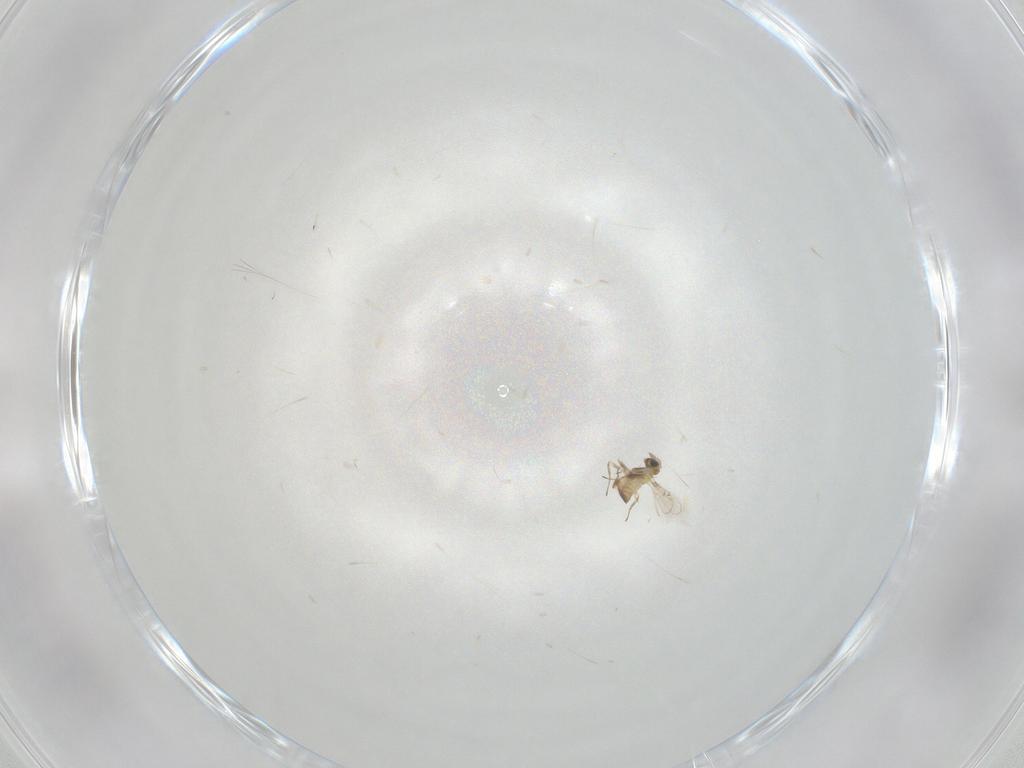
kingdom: Animalia
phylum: Arthropoda
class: Insecta
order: Hymenoptera
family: Trichogrammatidae
